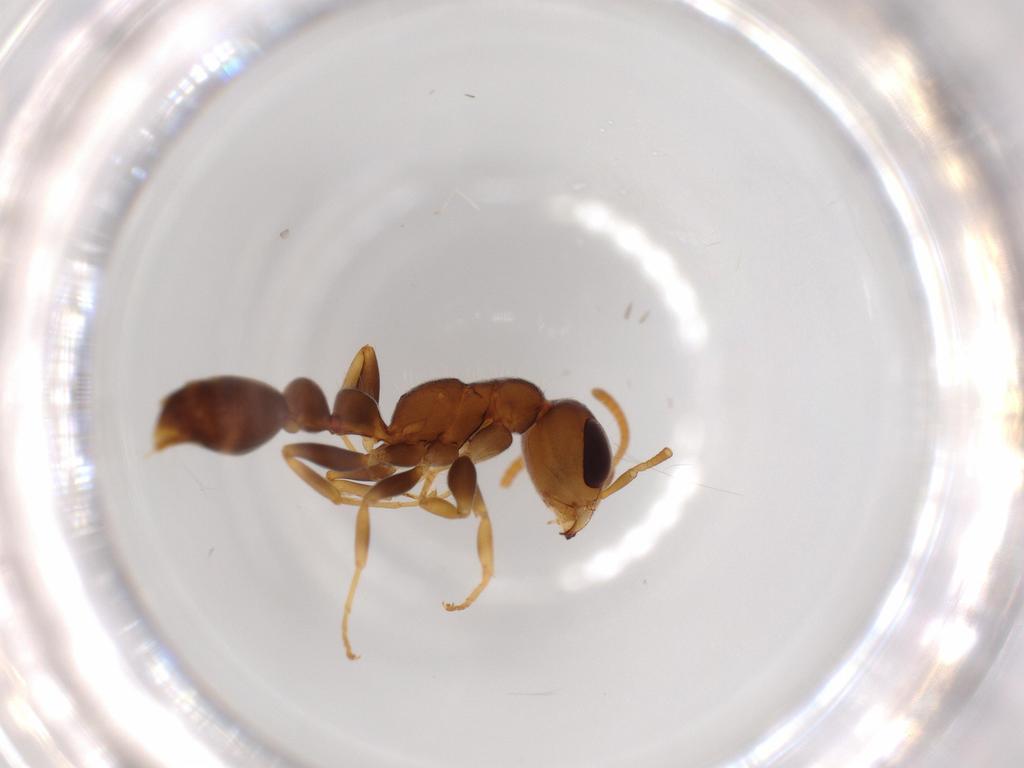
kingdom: Animalia
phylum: Arthropoda
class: Insecta
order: Hymenoptera
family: Formicidae
